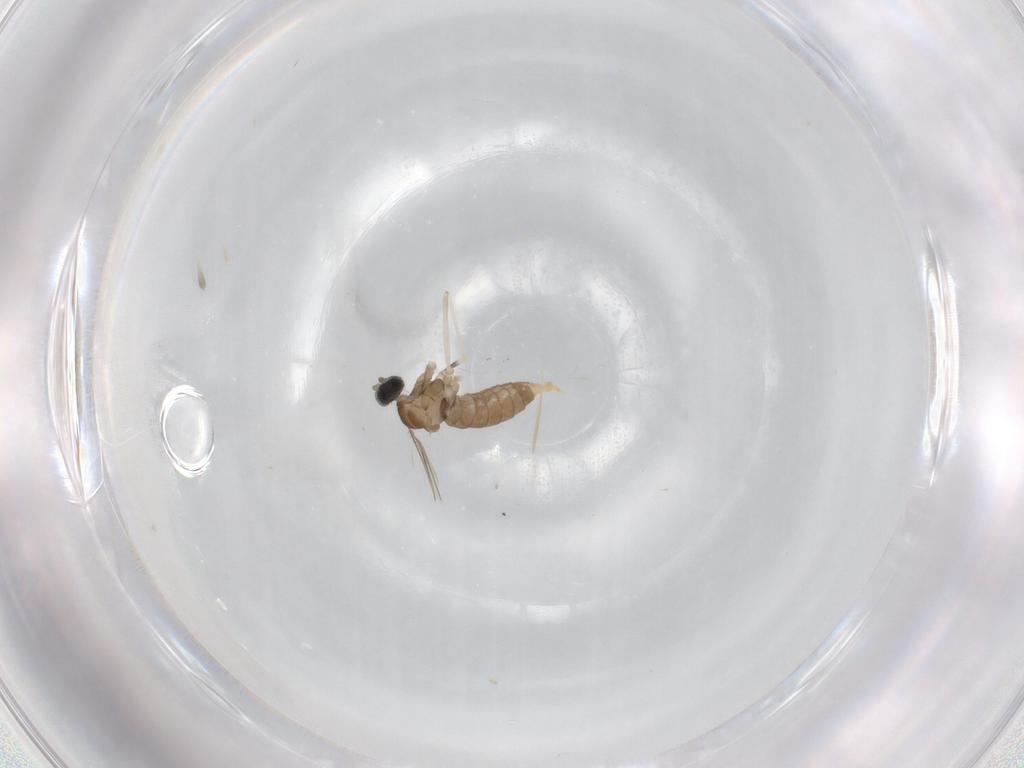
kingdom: Animalia
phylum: Arthropoda
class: Insecta
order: Diptera
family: Cecidomyiidae
